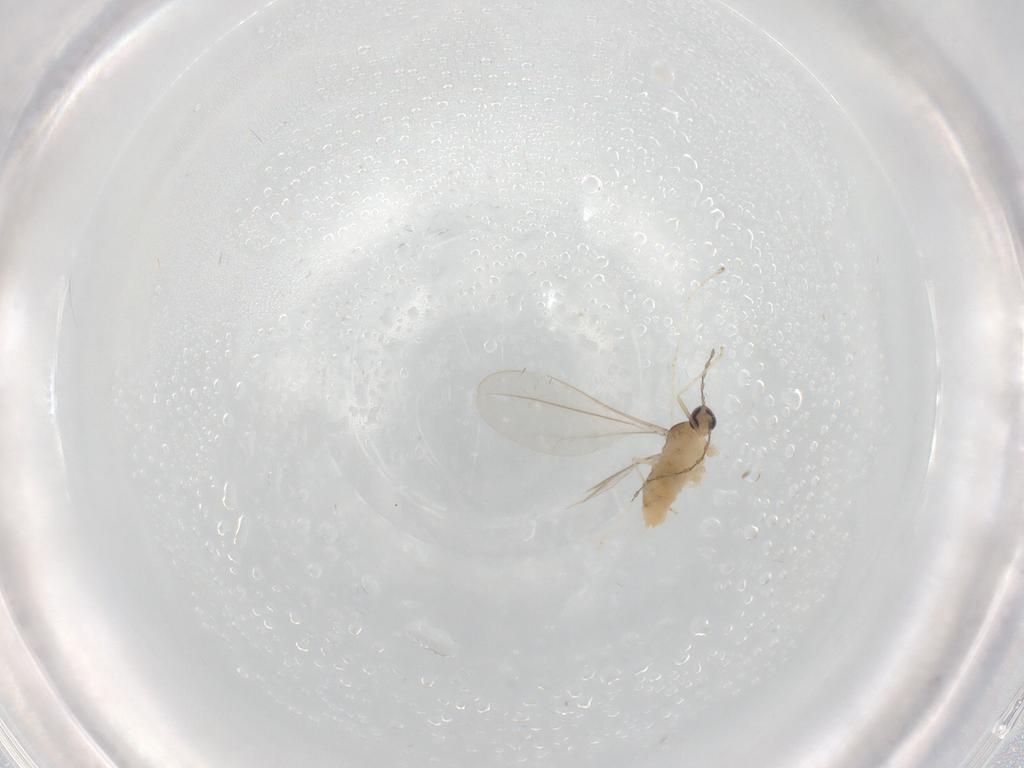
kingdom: Animalia
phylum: Arthropoda
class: Insecta
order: Diptera
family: Cecidomyiidae
